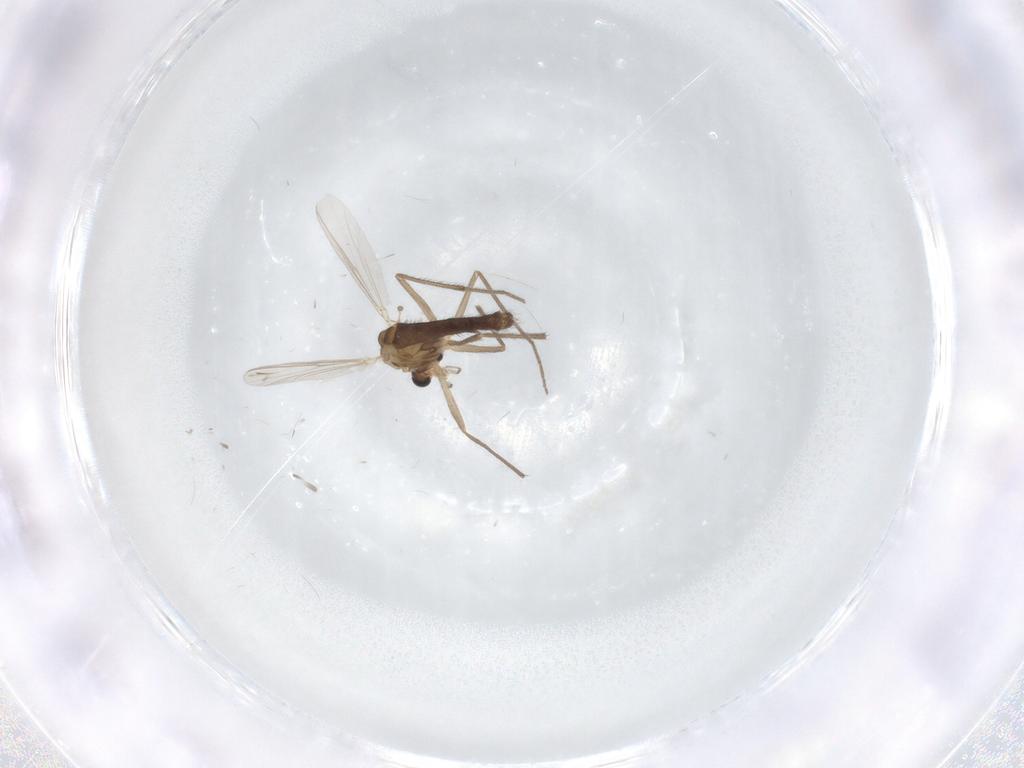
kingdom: Animalia
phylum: Arthropoda
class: Insecta
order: Diptera
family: Chironomidae
